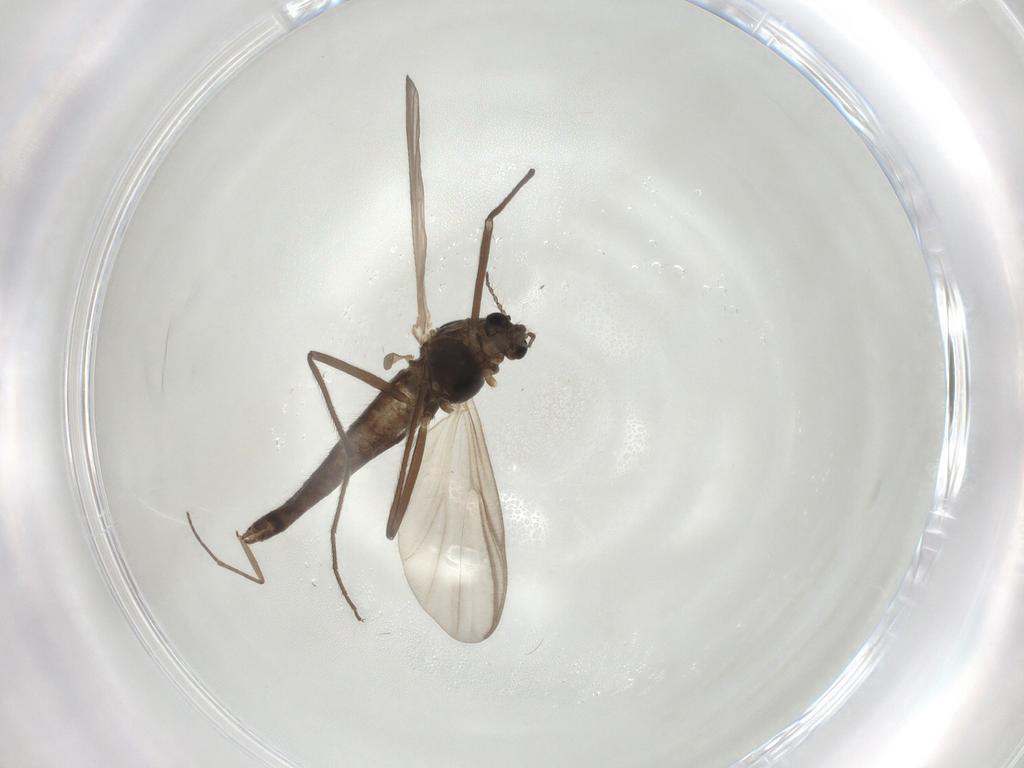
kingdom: Animalia
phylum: Arthropoda
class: Insecta
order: Diptera
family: Chironomidae
